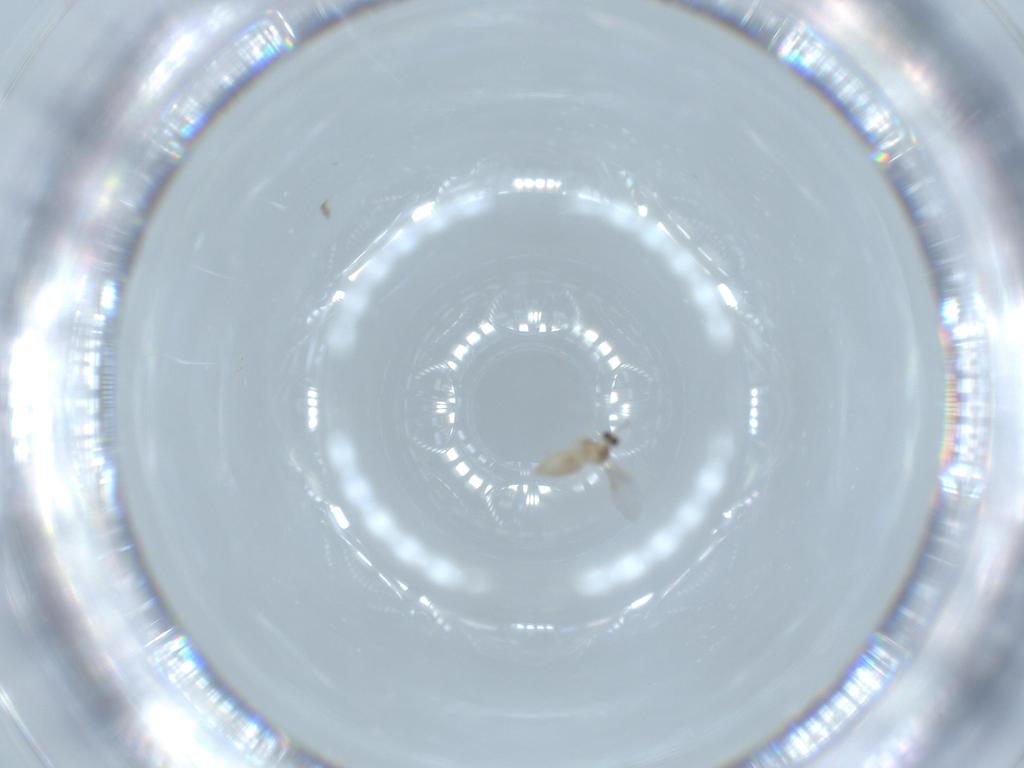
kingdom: Animalia
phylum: Arthropoda
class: Insecta
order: Diptera
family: Cecidomyiidae
